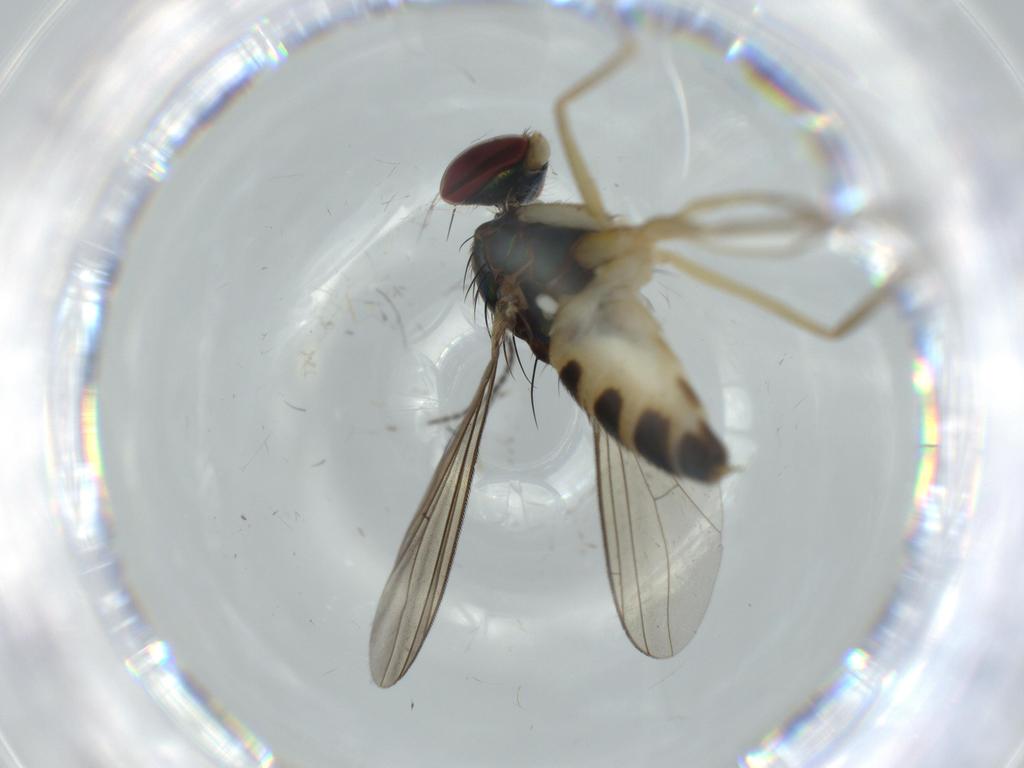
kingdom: Animalia
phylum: Arthropoda
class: Insecta
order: Diptera
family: Dolichopodidae
